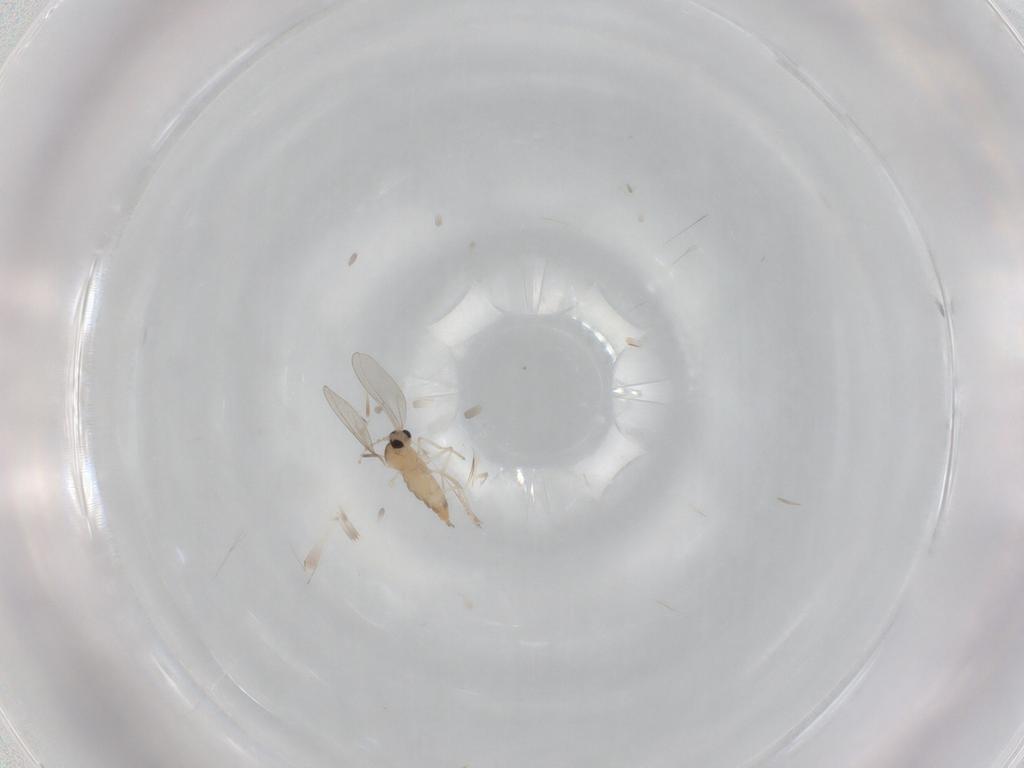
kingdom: Animalia
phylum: Arthropoda
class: Insecta
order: Diptera
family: Cecidomyiidae
